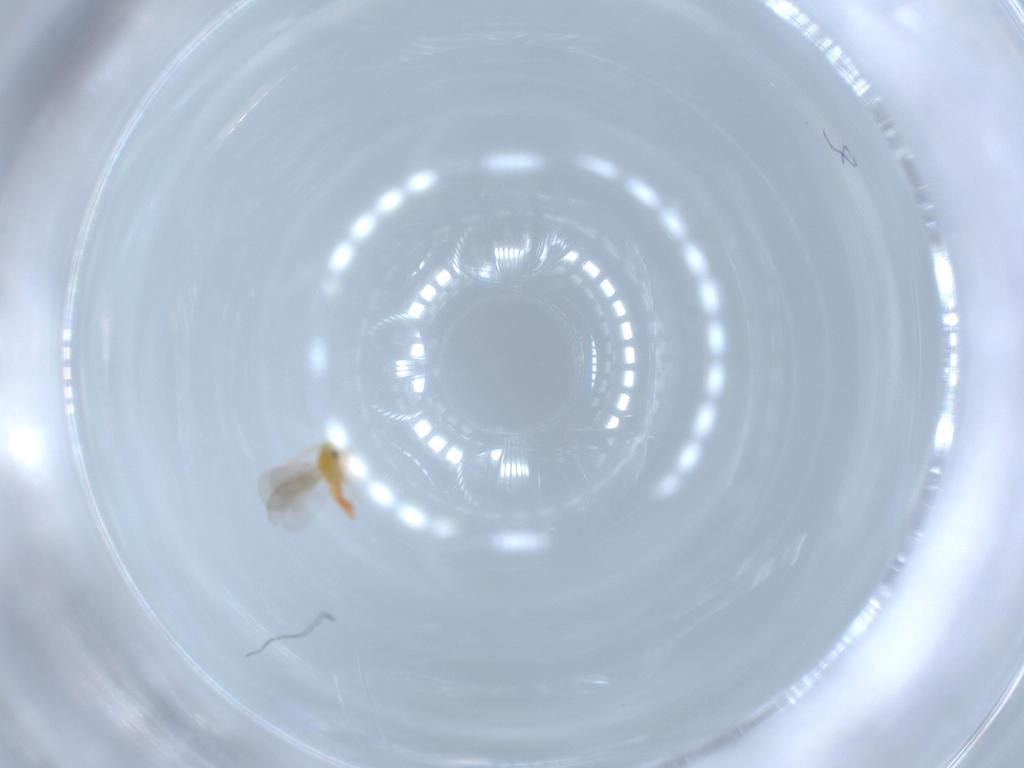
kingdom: Animalia
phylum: Arthropoda
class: Insecta
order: Hemiptera
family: Aleyrodidae
